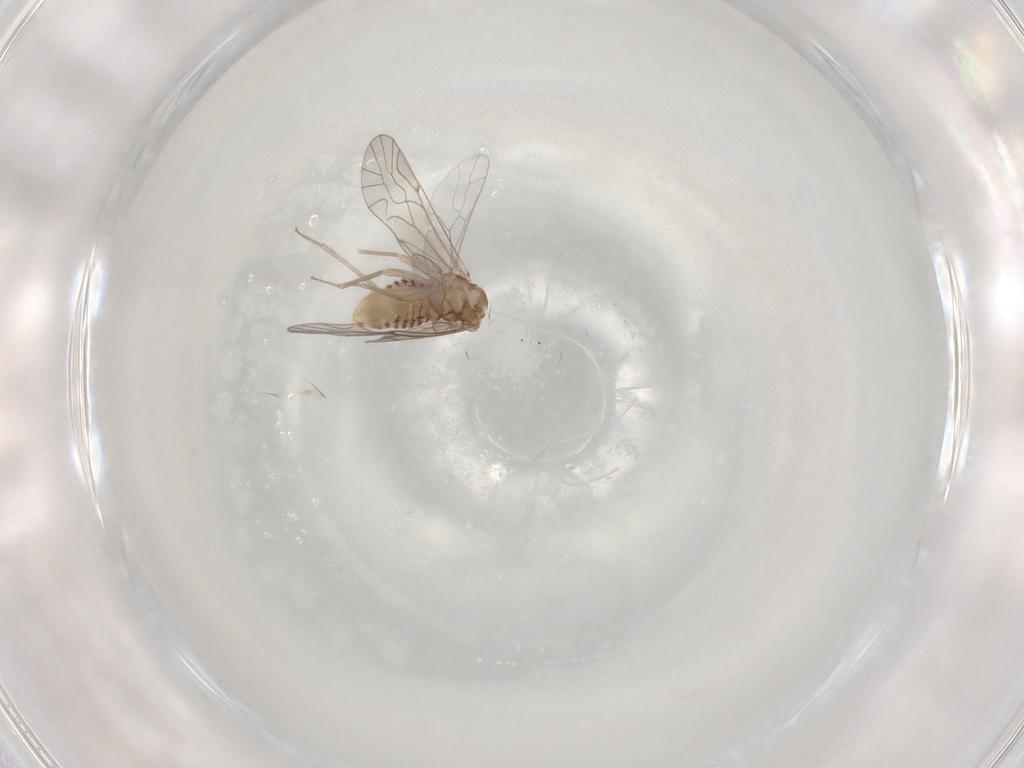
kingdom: Animalia
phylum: Arthropoda
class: Insecta
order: Psocodea
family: Lachesillidae
